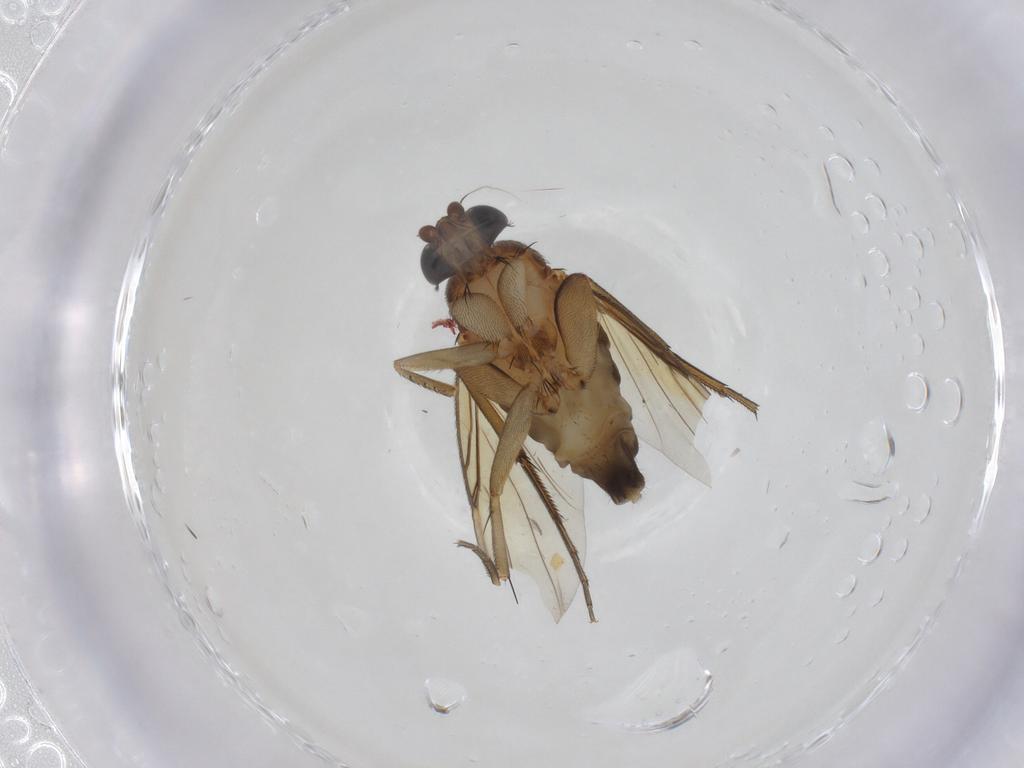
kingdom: Animalia
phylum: Arthropoda
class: Insecta
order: Diptera
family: Phoridae
